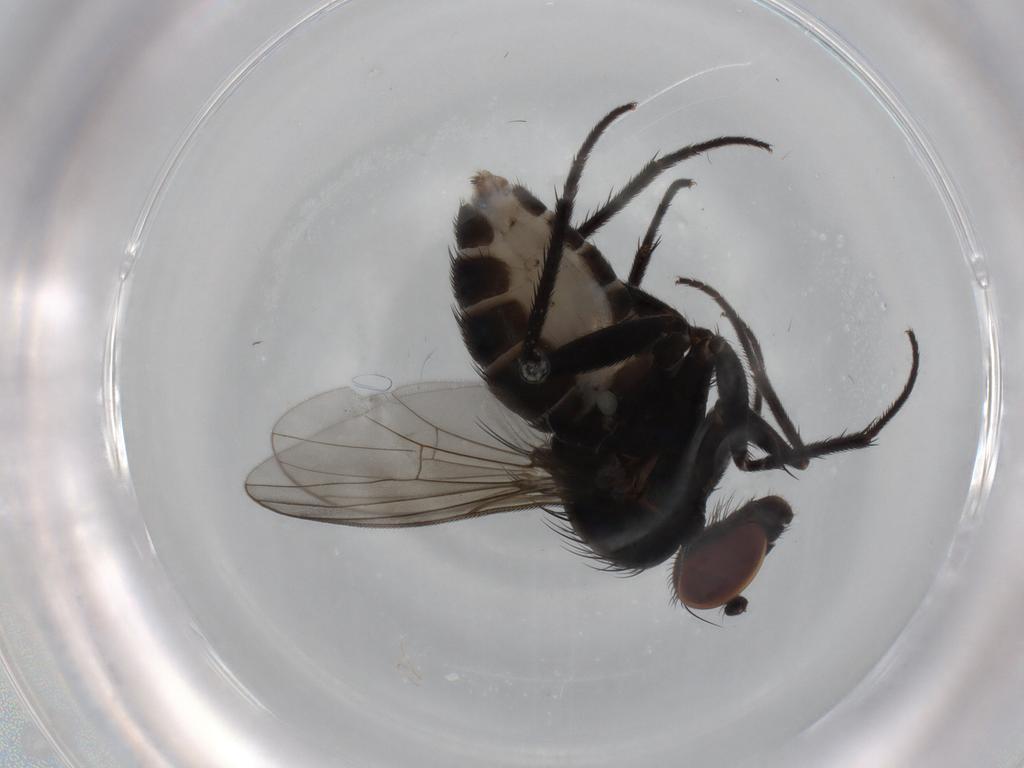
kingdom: Animalia
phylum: Arthropoda
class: Insecta
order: Diptera
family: Dolichopodidae
